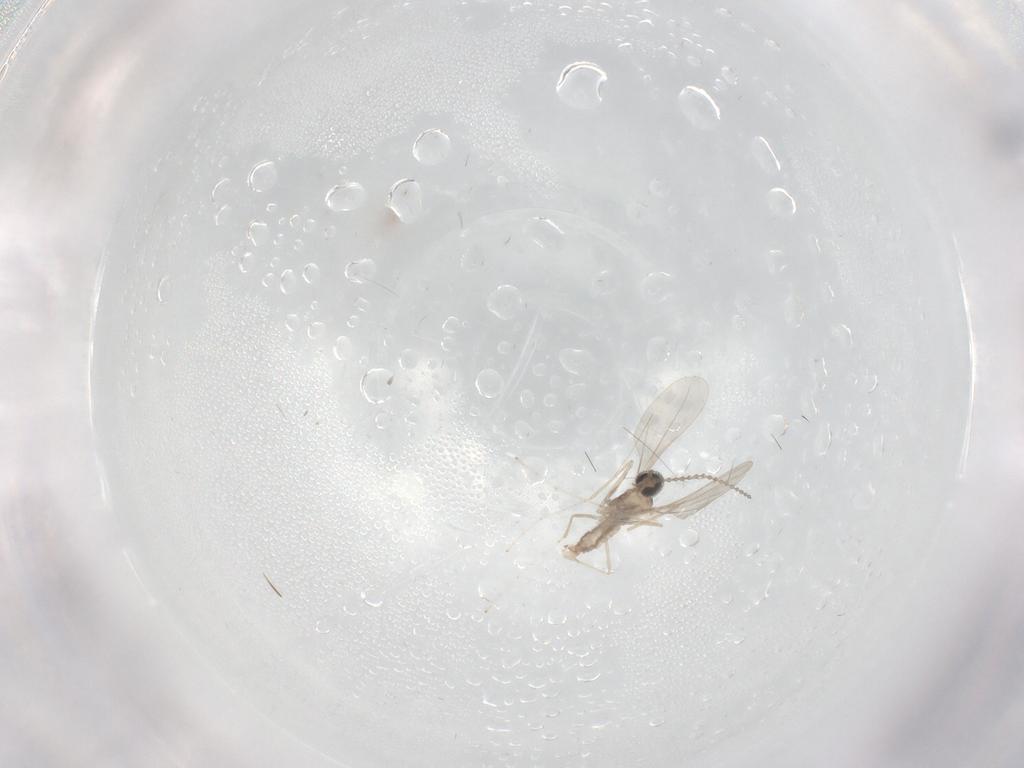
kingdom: Animalia
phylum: Arthropoda
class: Insecta
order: Diptera
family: Cecidomyiidae
